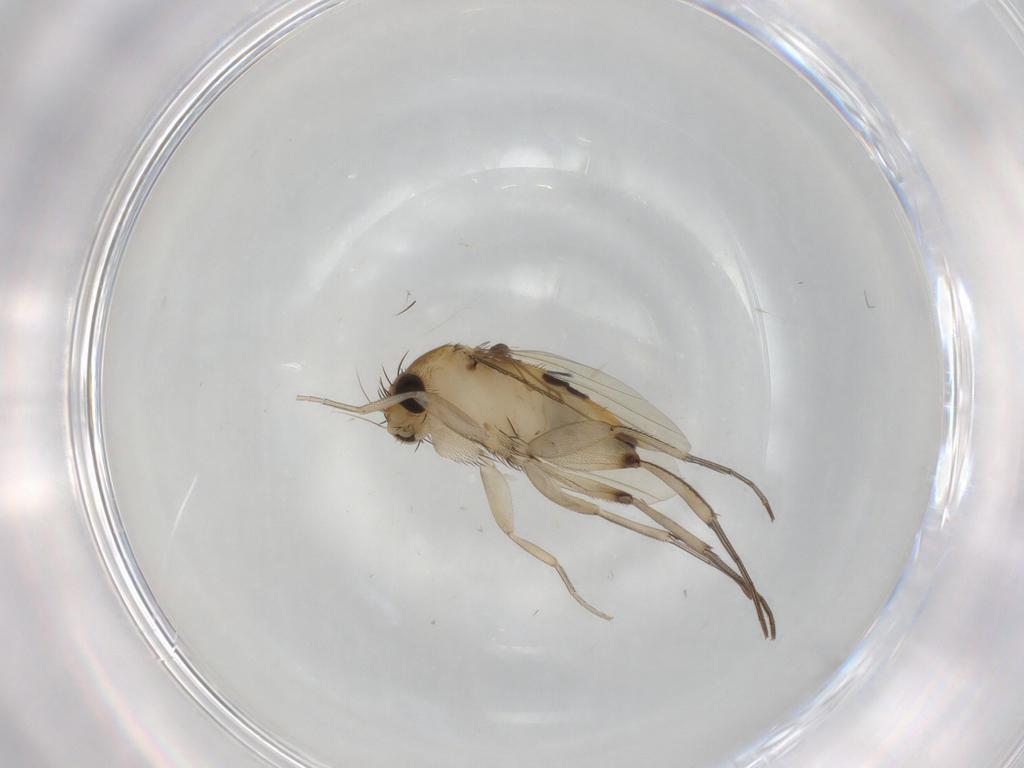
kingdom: Animalia
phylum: Arthropoda
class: Insecta
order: Diptera
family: Phoridae
